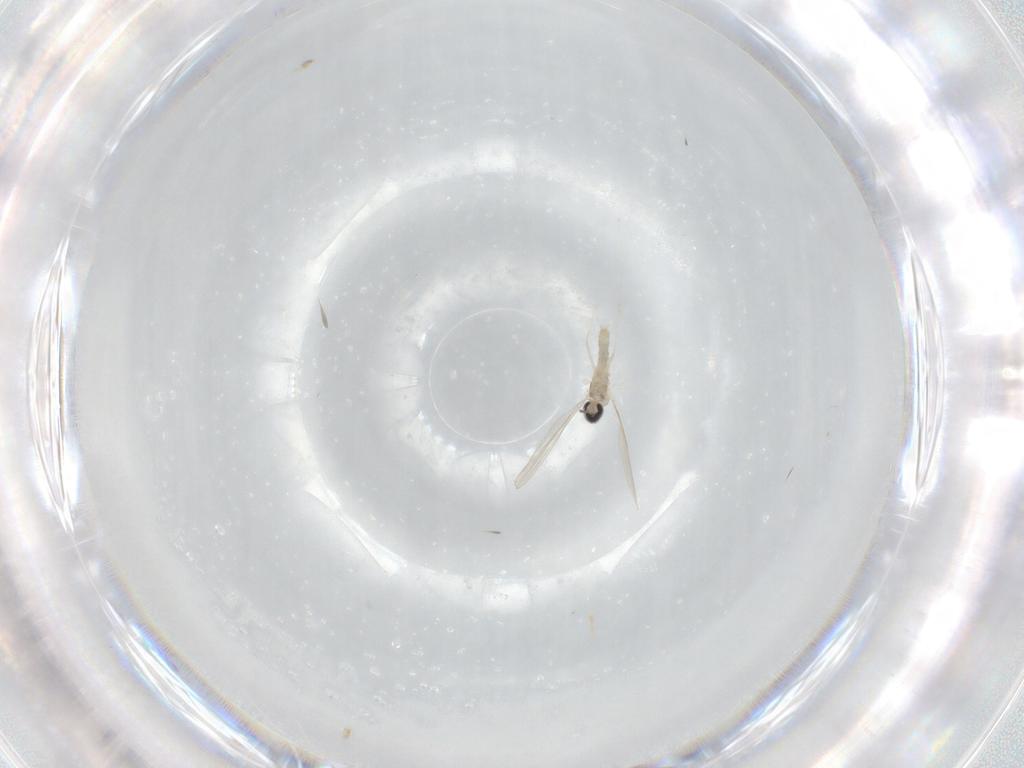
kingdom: Animalia
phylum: Arthropoda
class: Insecta
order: Diptera
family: Cecidomyiidae
